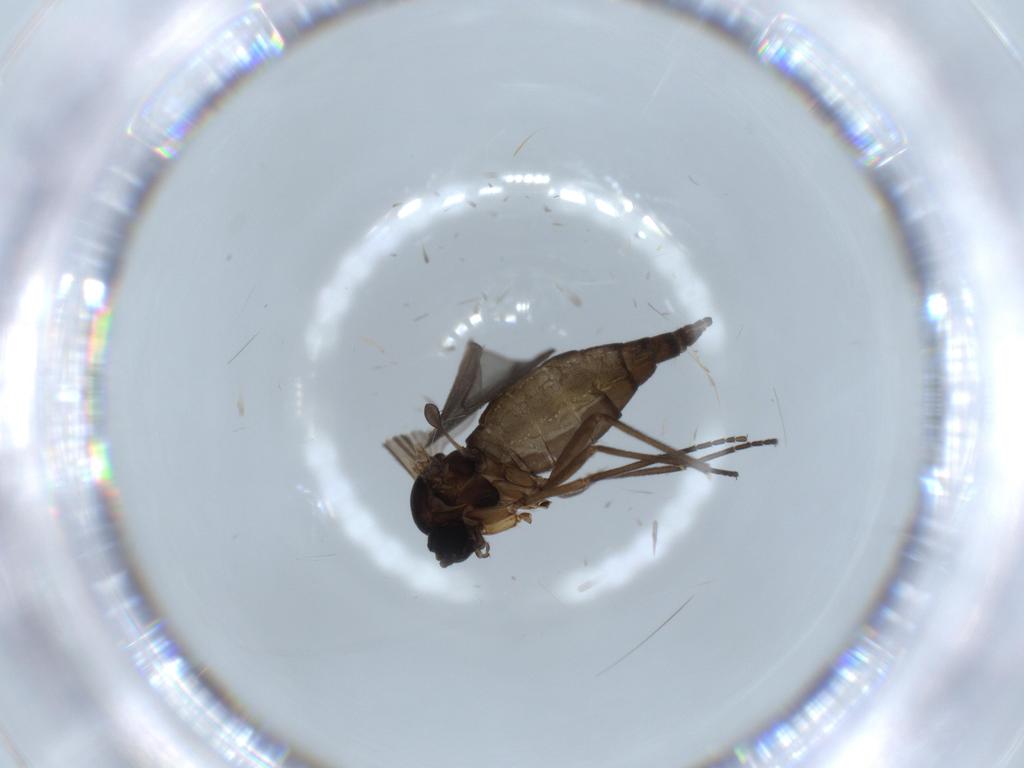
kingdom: Animalia
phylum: Arthropoda
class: Insecta
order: Diptera
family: Sciaridae
